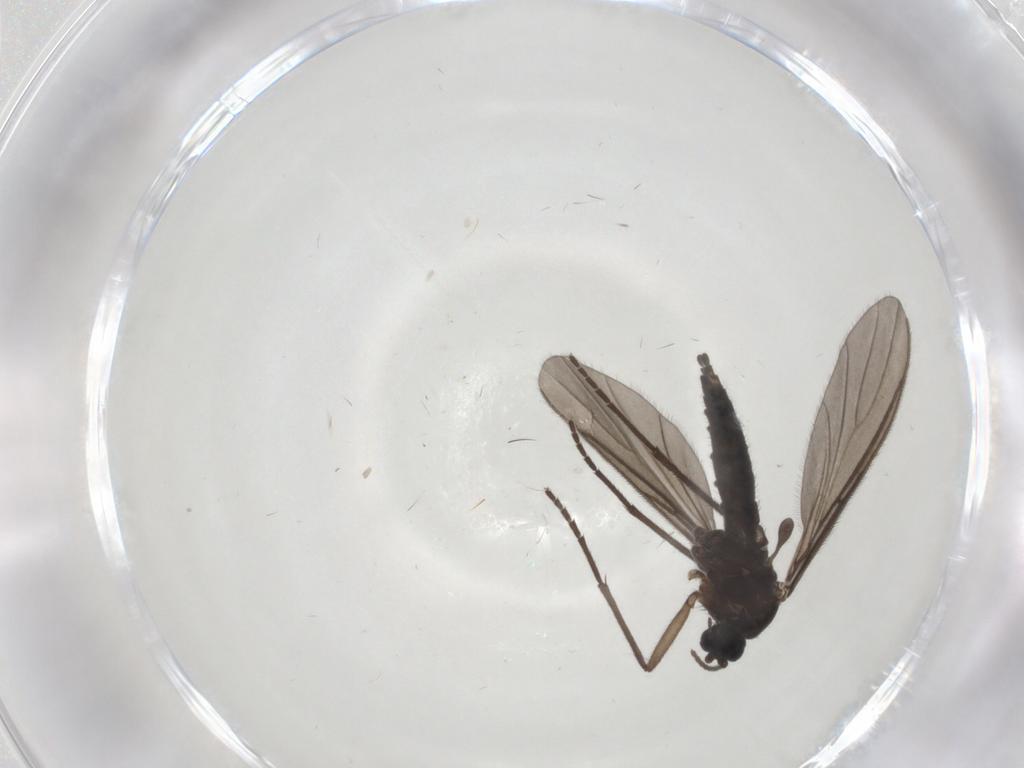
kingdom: Animalia
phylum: Arthropoda
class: Insecta
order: Diptera
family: Sciaridae
